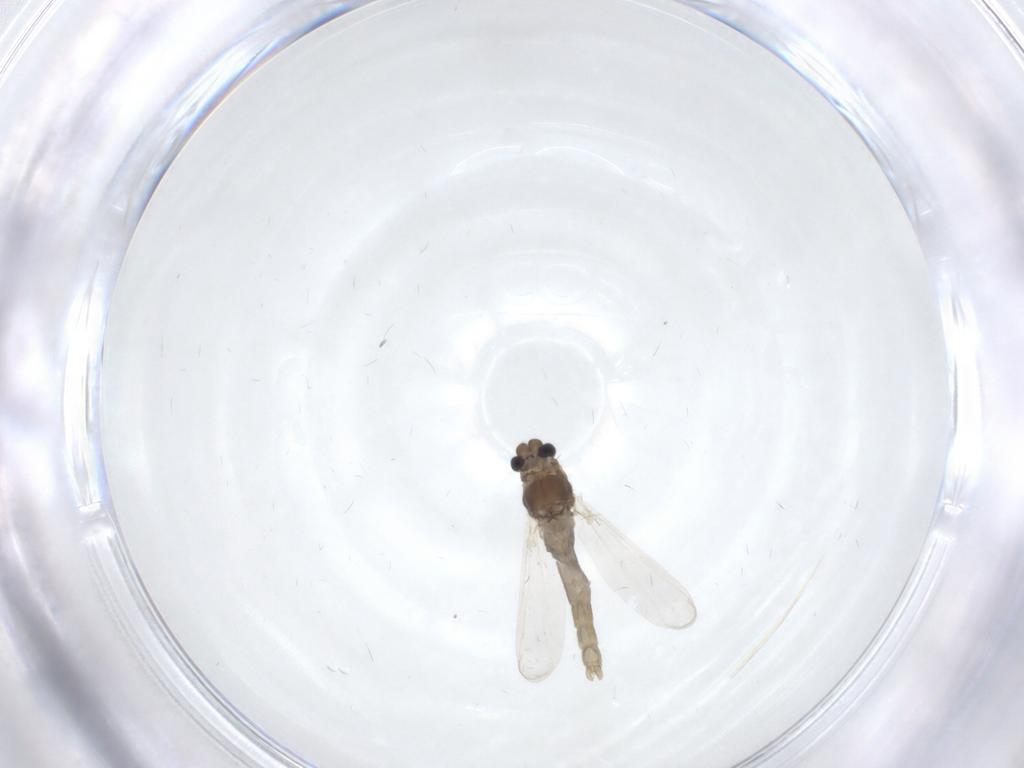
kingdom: Animalia
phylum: Arthropoda
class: Insecta
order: Diptera
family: Chironomidae
